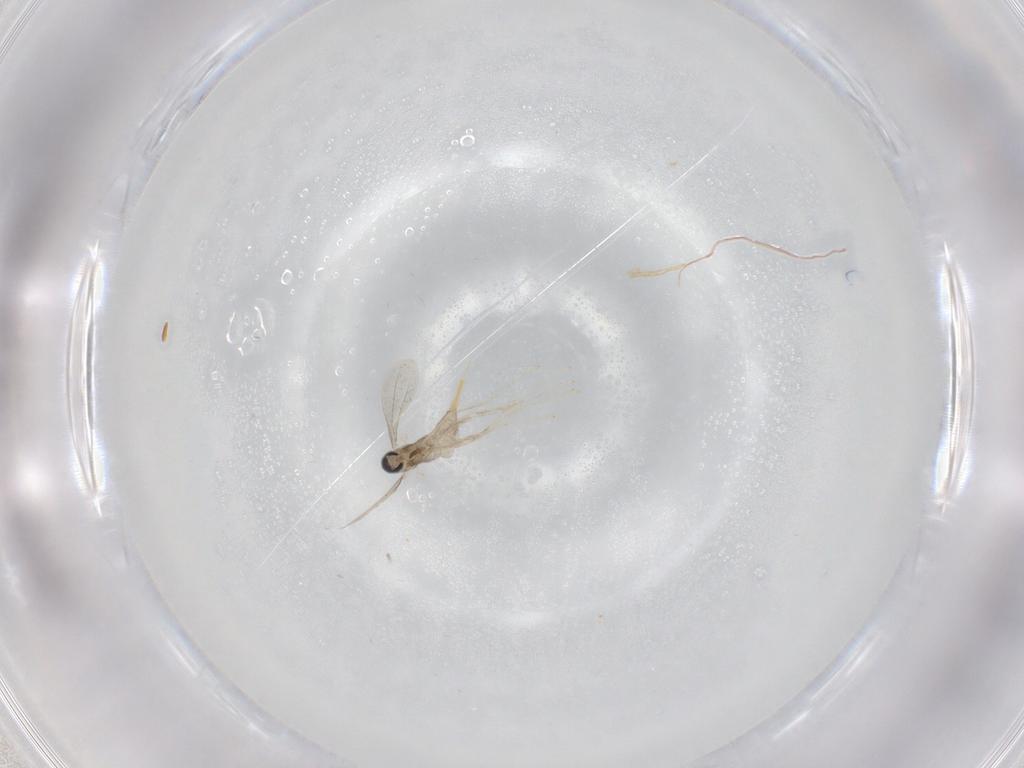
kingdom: Animalia
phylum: Arthropoda
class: Insecta
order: Diptera
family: Cecidomyiidae
